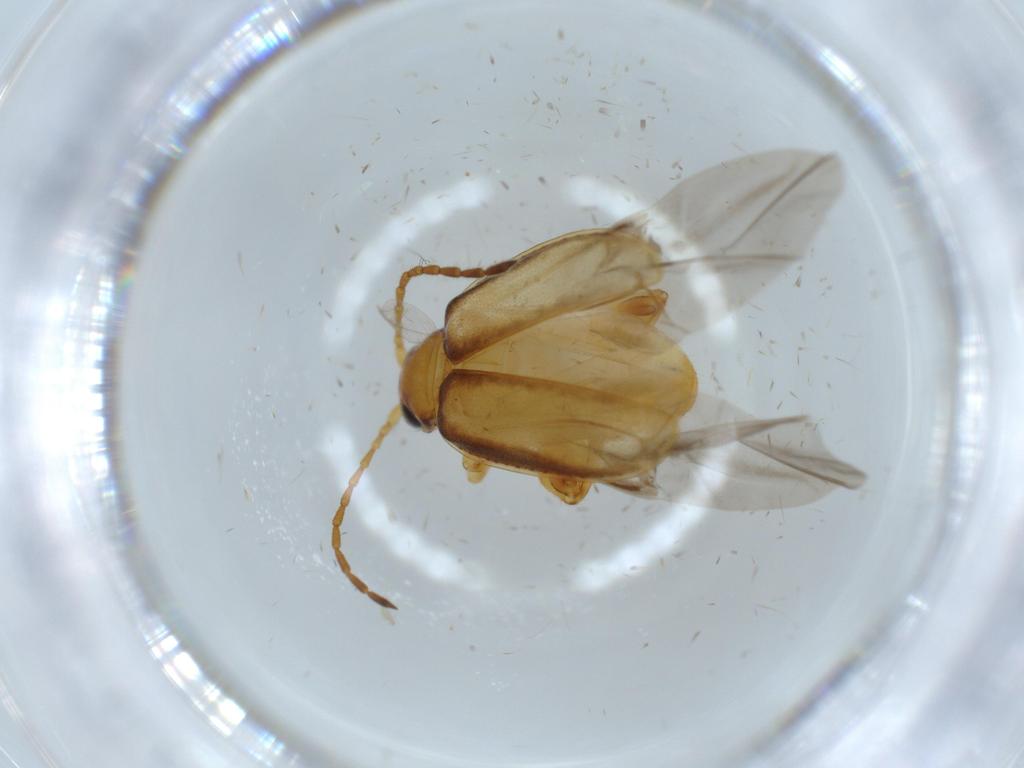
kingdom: Animalia
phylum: Arthropoda
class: Insecta
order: Coleoptera
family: Chrysomelidae
